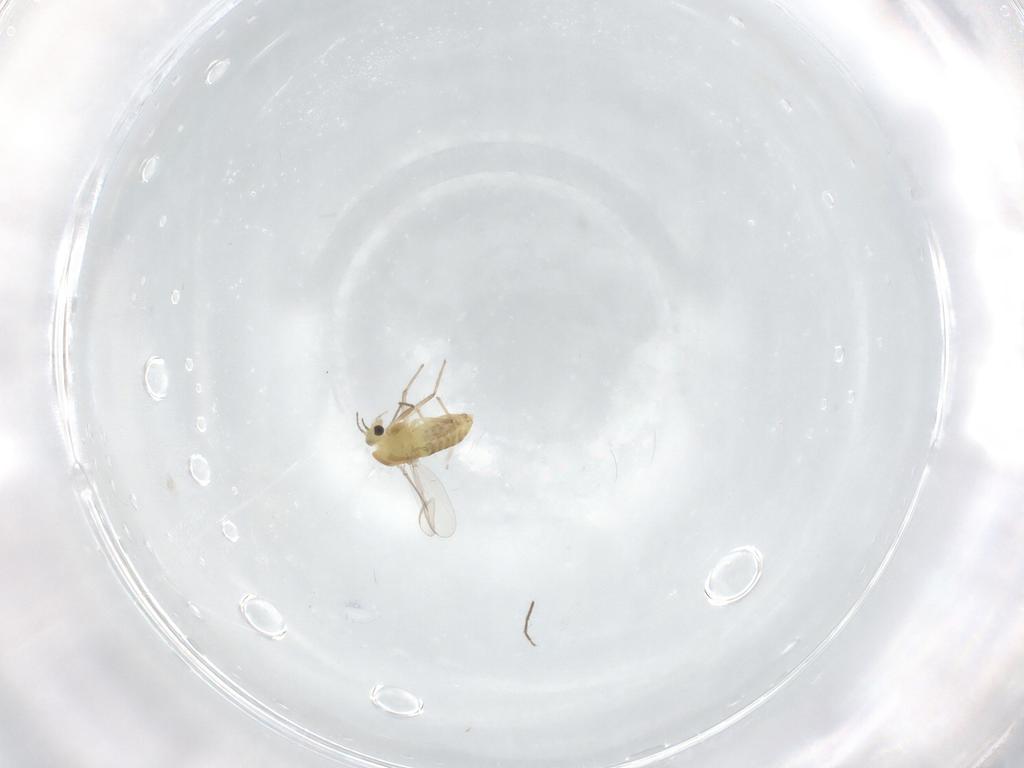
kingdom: Animalia
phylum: Arthropoda
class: Insecta
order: Diptera
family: Chironomidae
